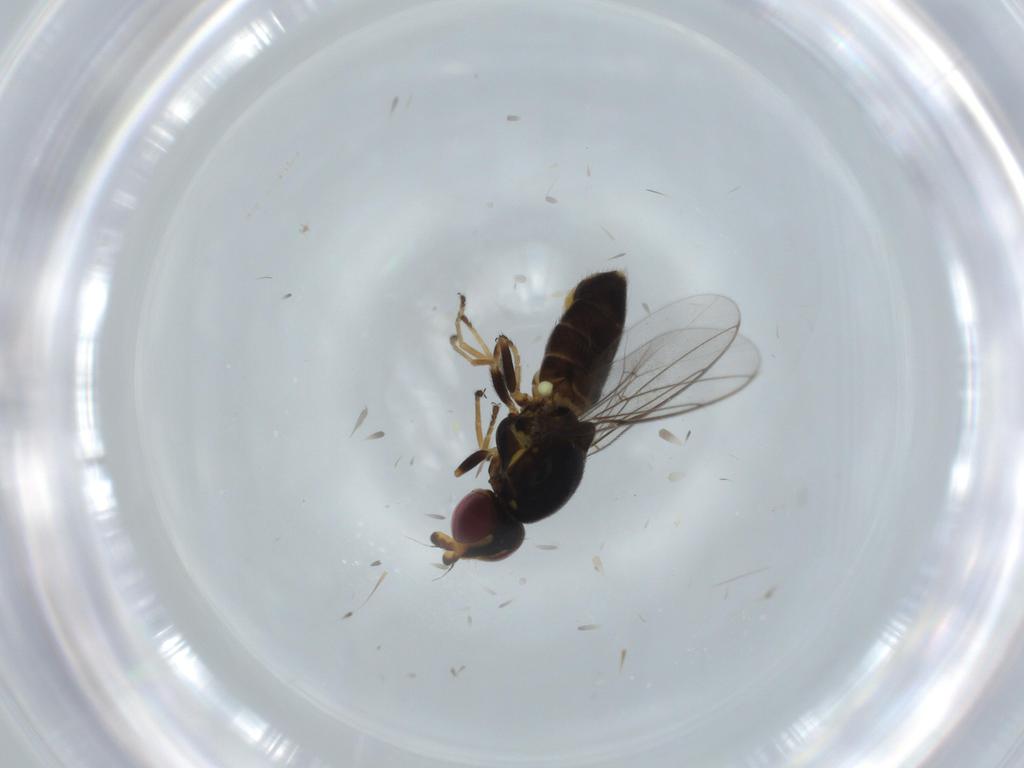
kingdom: Animalia
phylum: Arthropoda
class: Insecta
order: Diptera
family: Chloropidae
